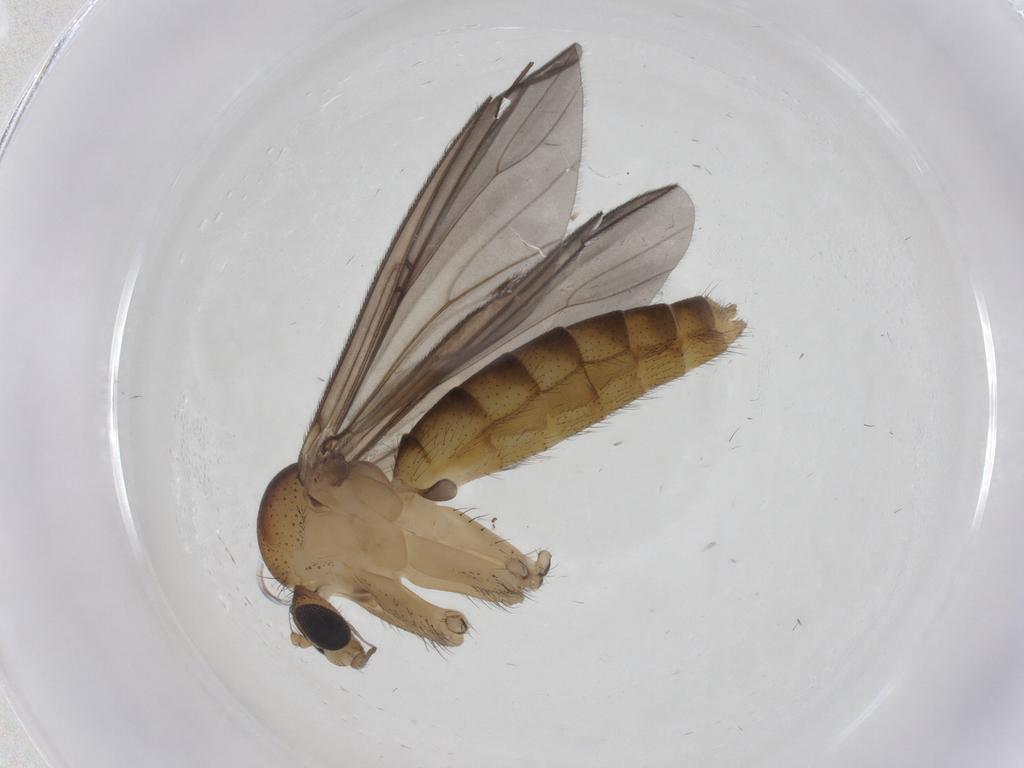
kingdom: Animalia
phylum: Arthropoda
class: Insecta
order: Diptera
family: Mycetophilidae
